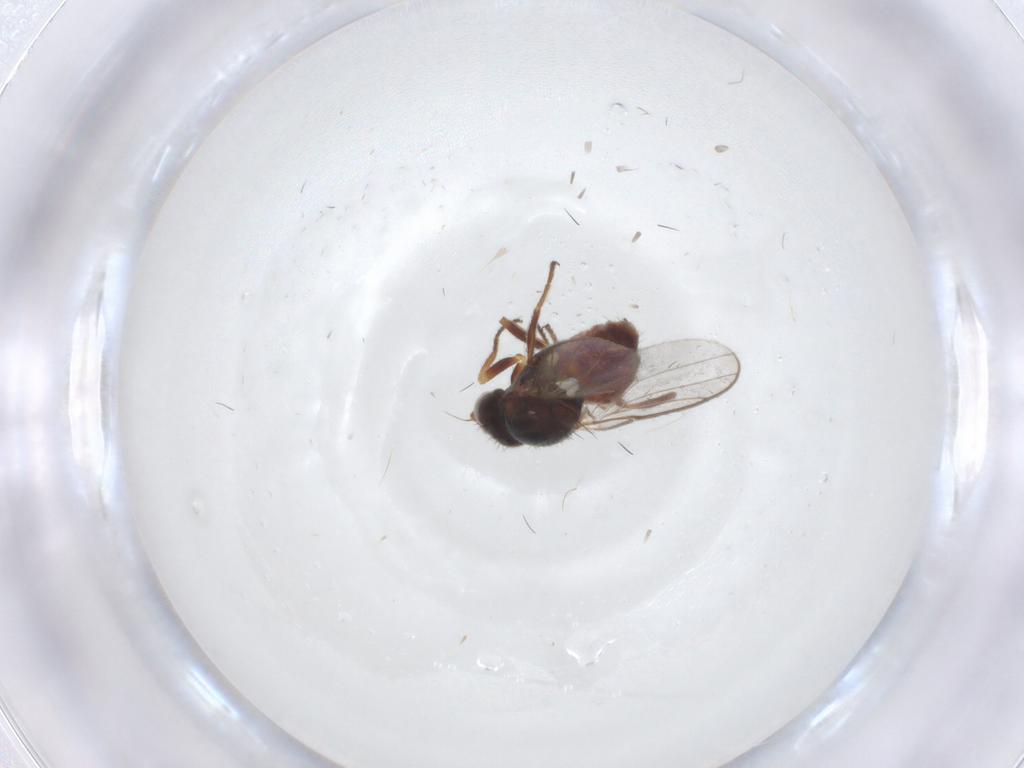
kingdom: Animalia
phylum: Arthropoda
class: Insecta
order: Diptera
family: Chloropidae
